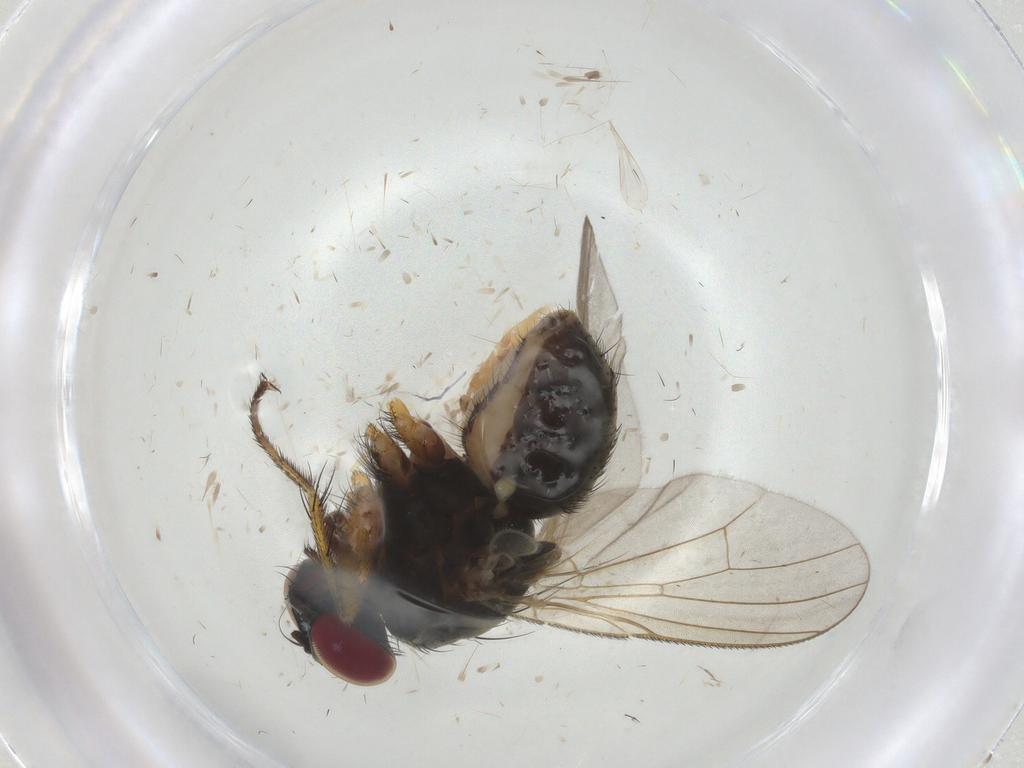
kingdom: Animalia
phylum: Arthropoda
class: Insecta
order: Diptera
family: Muscidae
